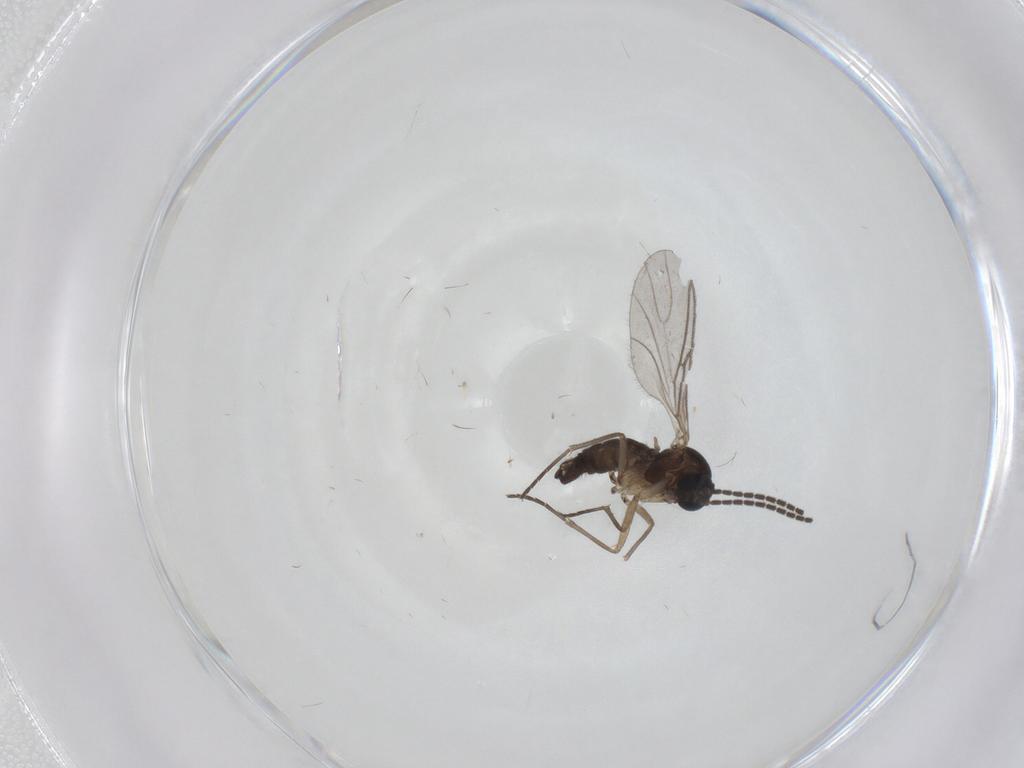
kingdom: Animalia
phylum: Arthropoda
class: Insecta
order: Diptera
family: Sciaridae
